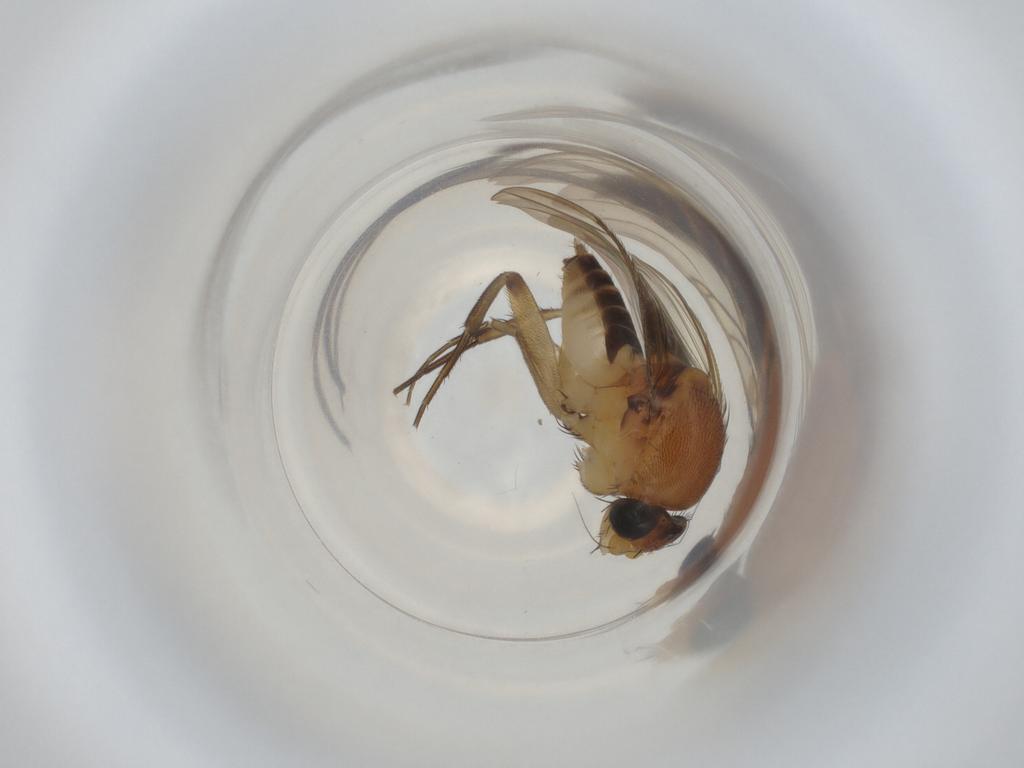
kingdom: Animalia
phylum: Arthropoda
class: Insecta
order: Diptera
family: Phoridae
